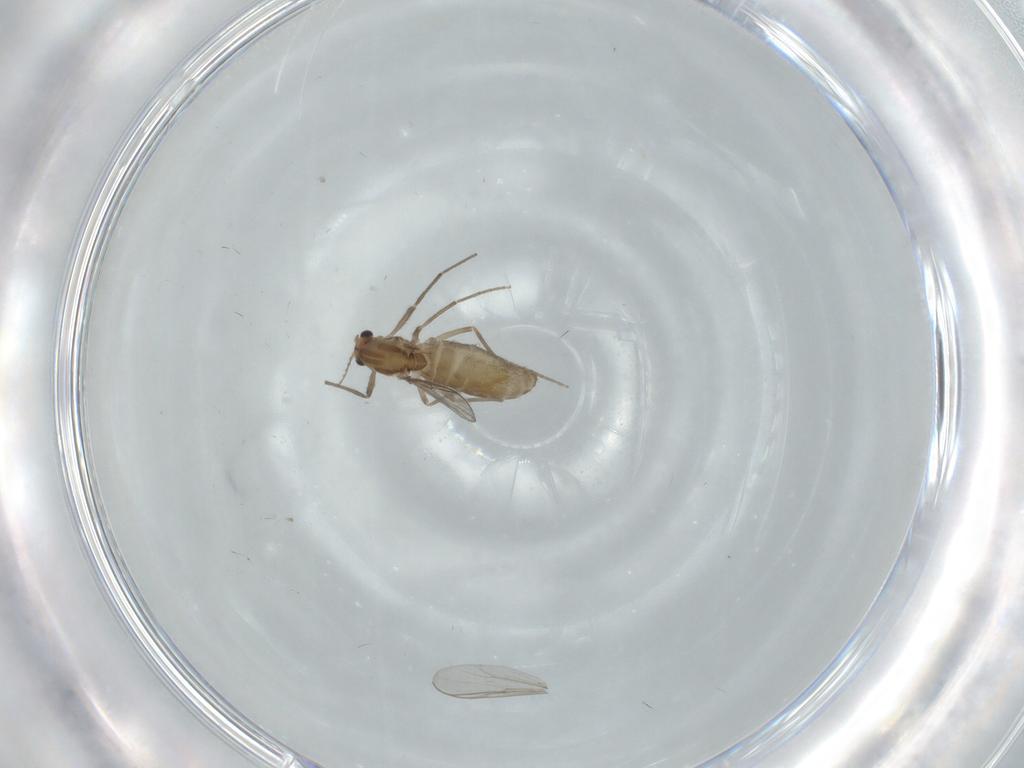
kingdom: Animalia
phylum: Arthropoda
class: Insecta
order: Diptera
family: Chironomidae
